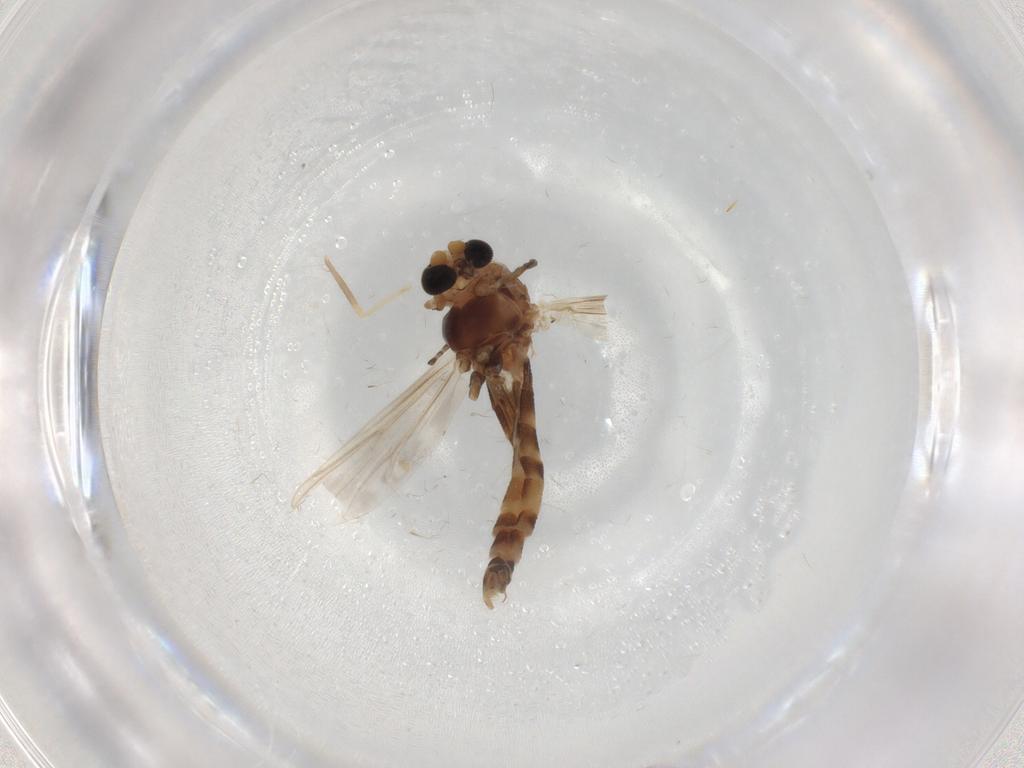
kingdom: Animalia
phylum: Arthropoda
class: Insecta
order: Diptera
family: Chironomidae
